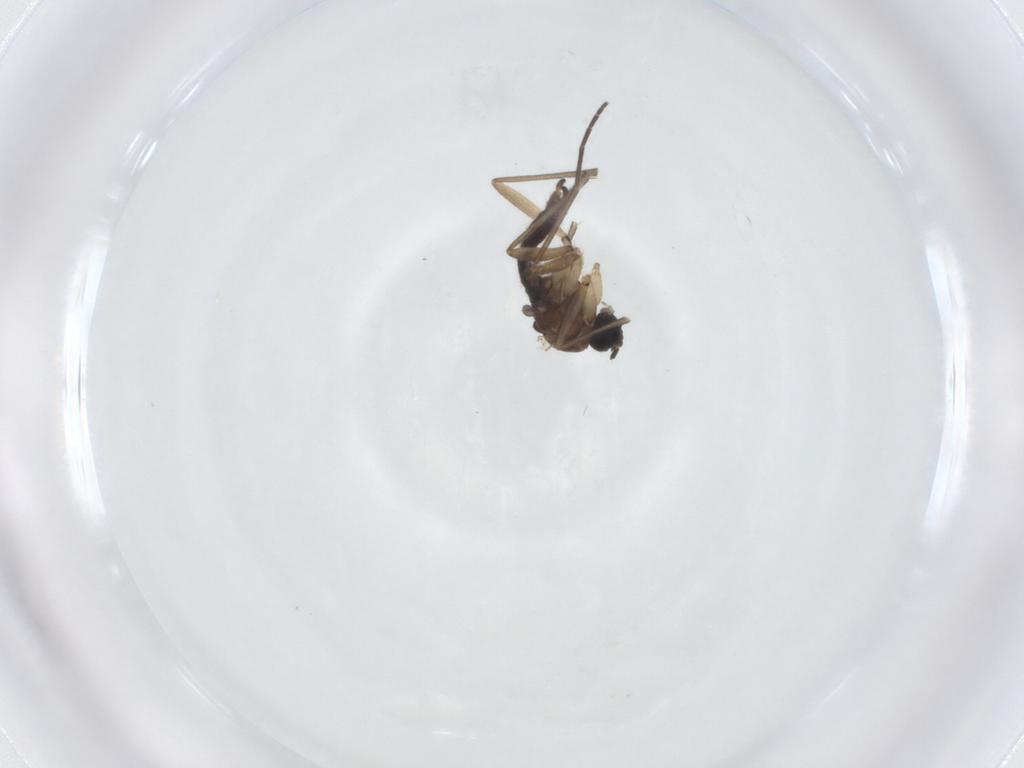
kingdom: Animalia
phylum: Arthropoda
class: Insecta
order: Diptera
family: Sciaridae
